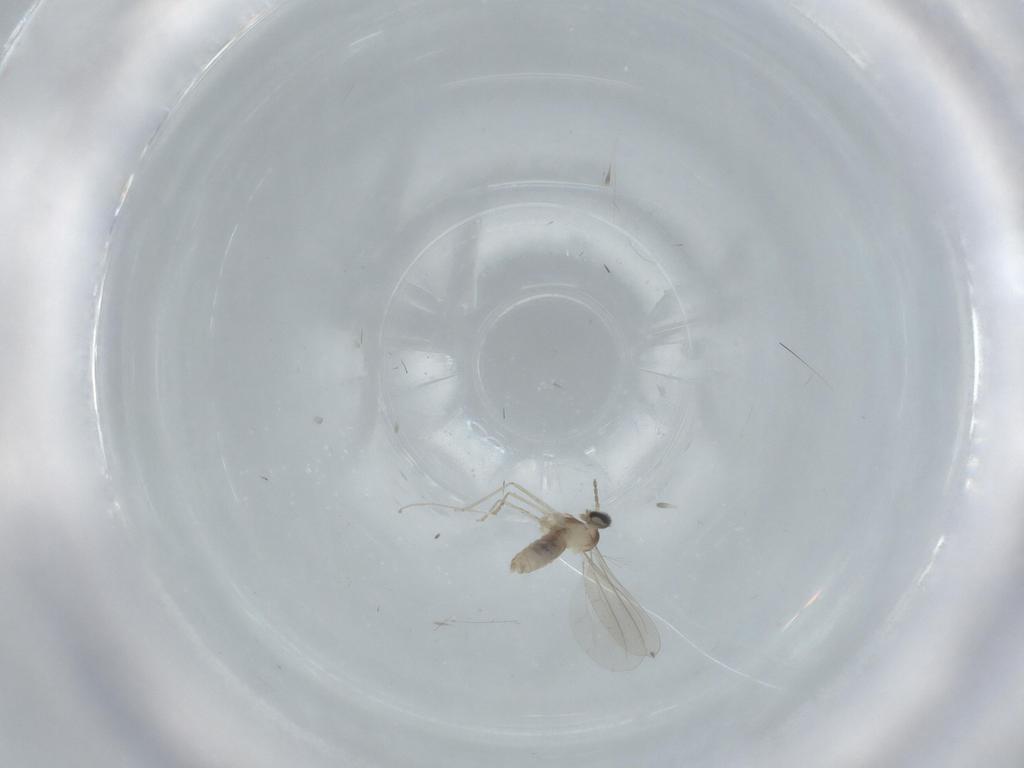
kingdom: Animalia
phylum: Arthropoda
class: Insecta
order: Diptera
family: Cecidomyiidae
